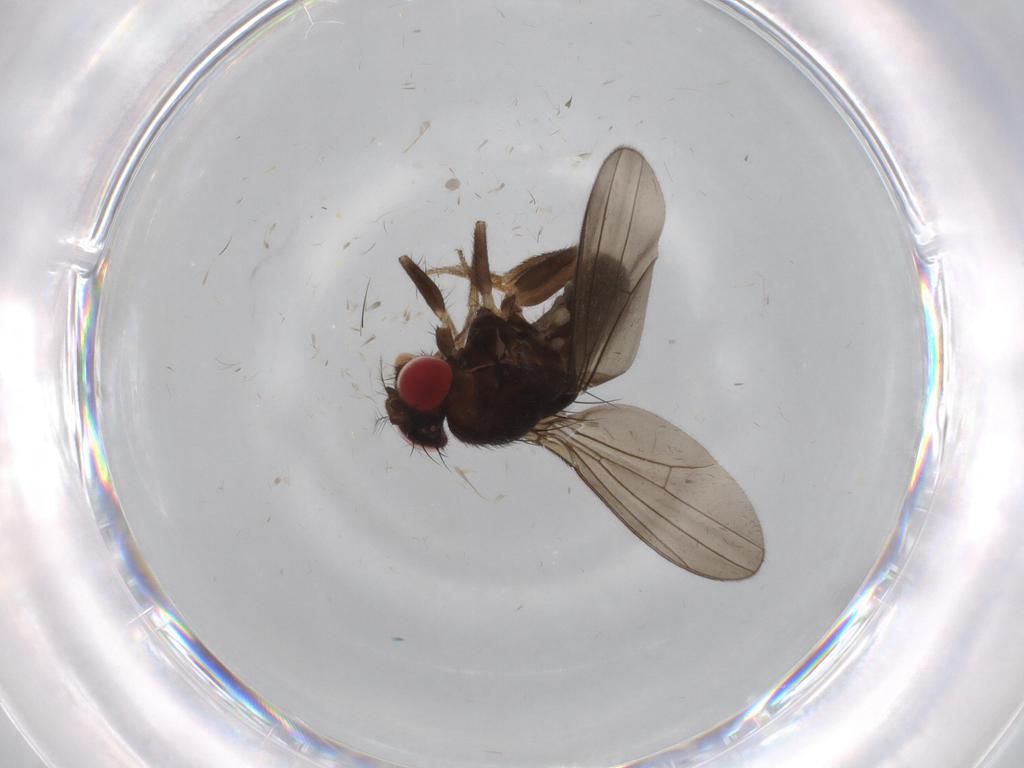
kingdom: Animalia
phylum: Arthropoda
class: Insecta
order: Diptera
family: Drosophilidae
